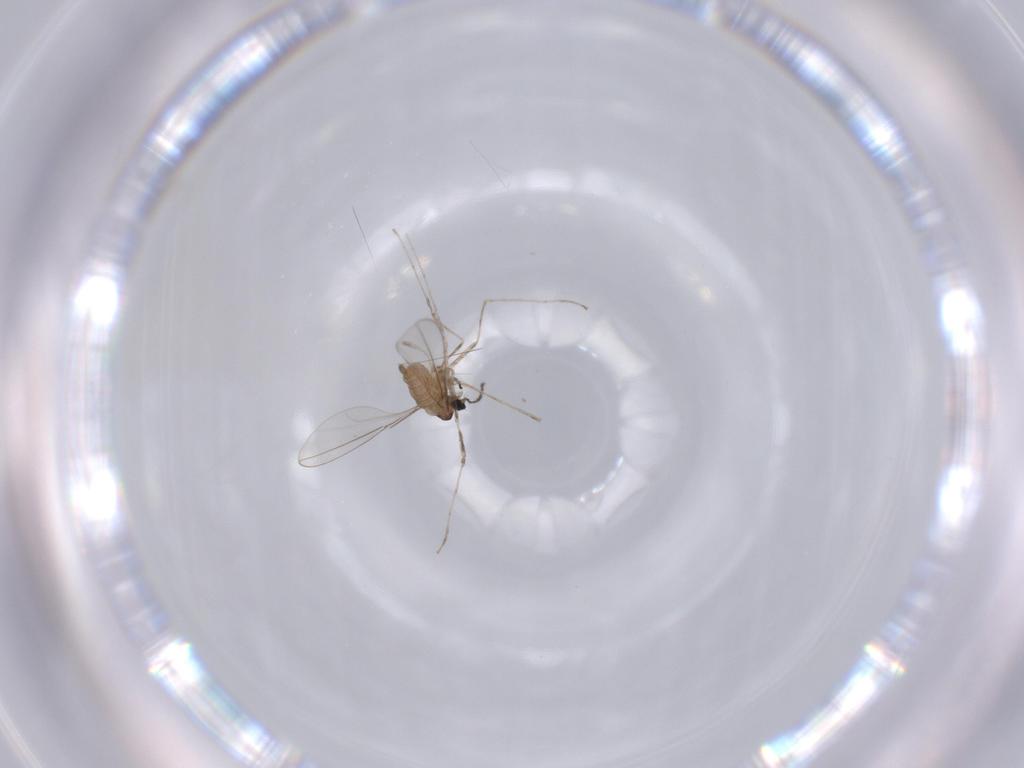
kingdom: Animalia
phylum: Arthropoda
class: Insecta
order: Diptera
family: Cecidomyiidae
